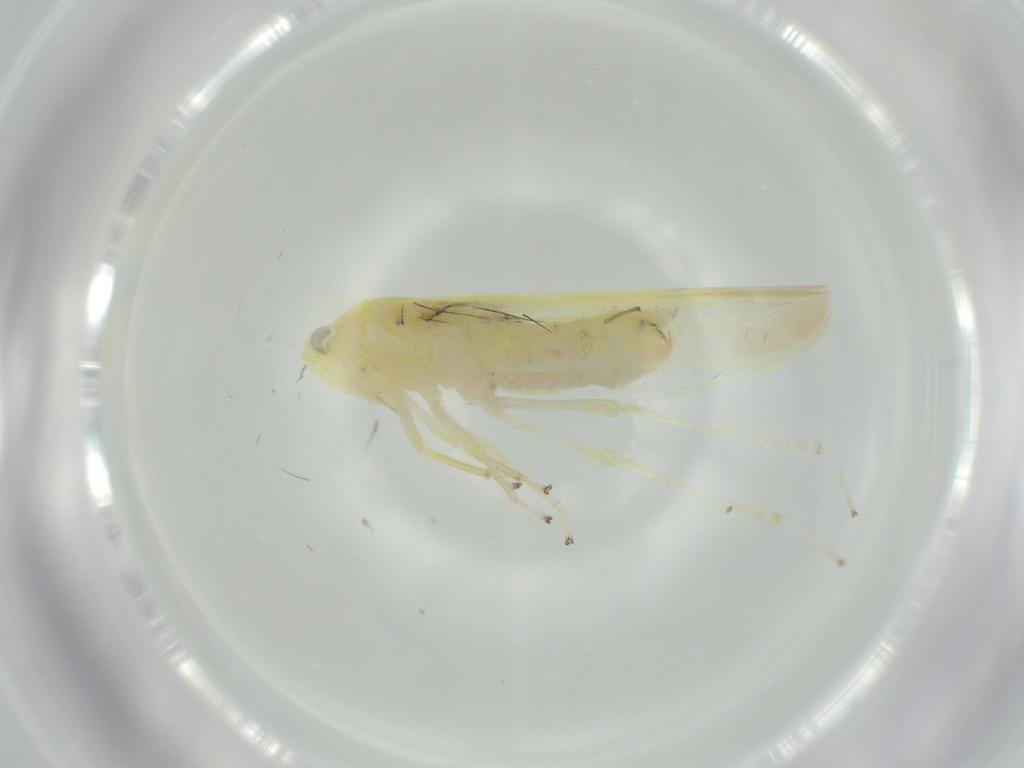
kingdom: Animalia
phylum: Arthropoda
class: Insecta
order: Hemiptera
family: Cicadellidae
